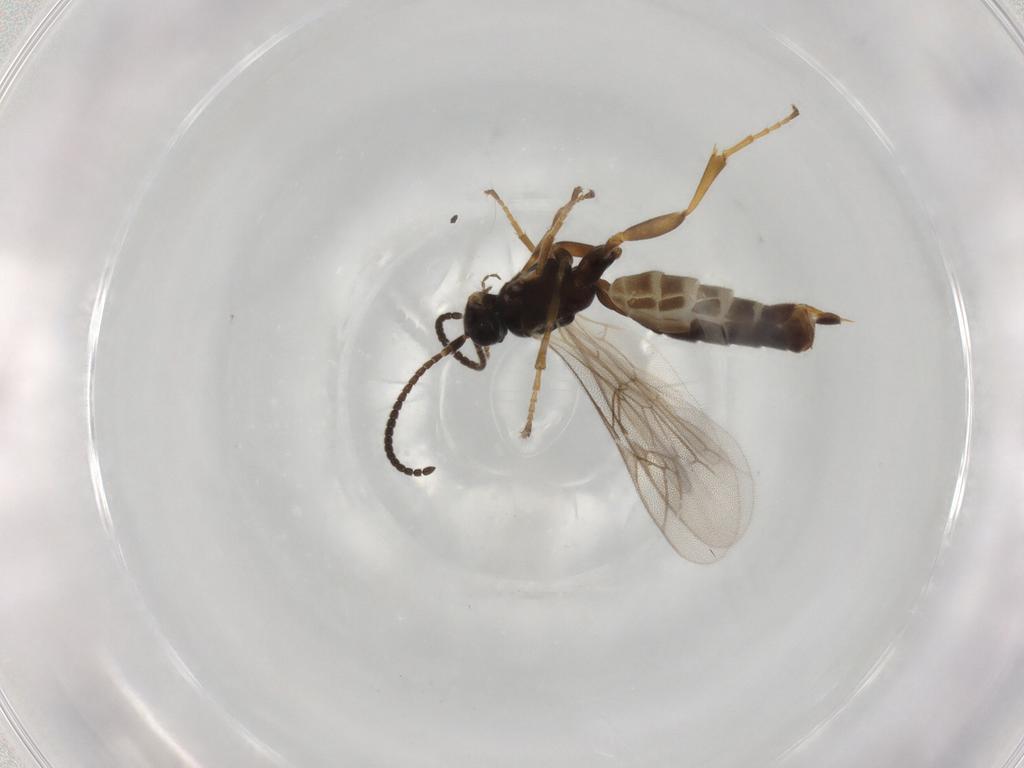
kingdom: Animalia
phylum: Arthropoda
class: Insecta
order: Hymenoptera
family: Ichneumonidae
